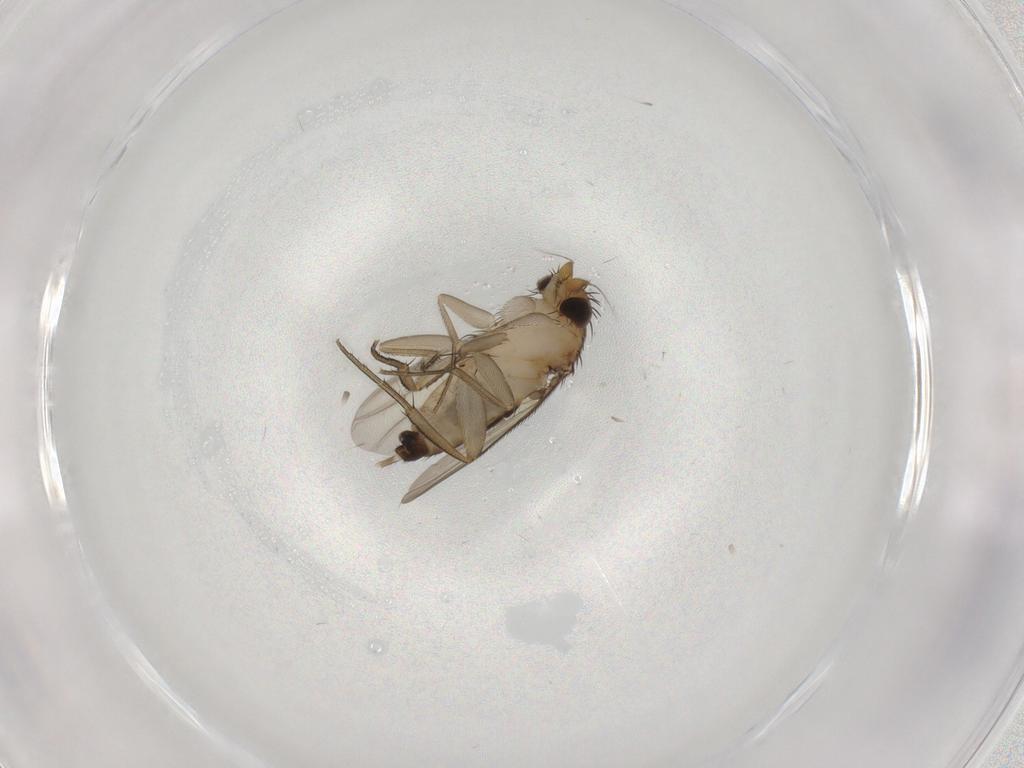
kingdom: Animalia
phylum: Arthropoda
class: Insecta
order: Diptera
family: Phoridae
